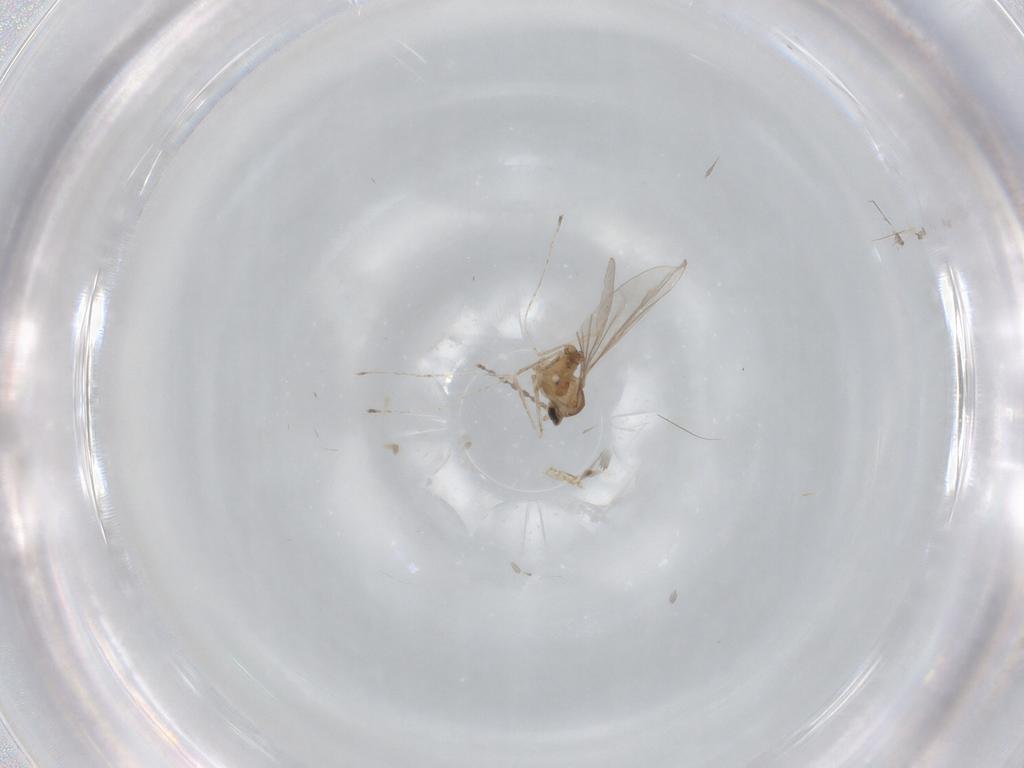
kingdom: Animalia
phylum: Arthropoda
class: Insecta
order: Diptera
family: Cecidomyiidae
